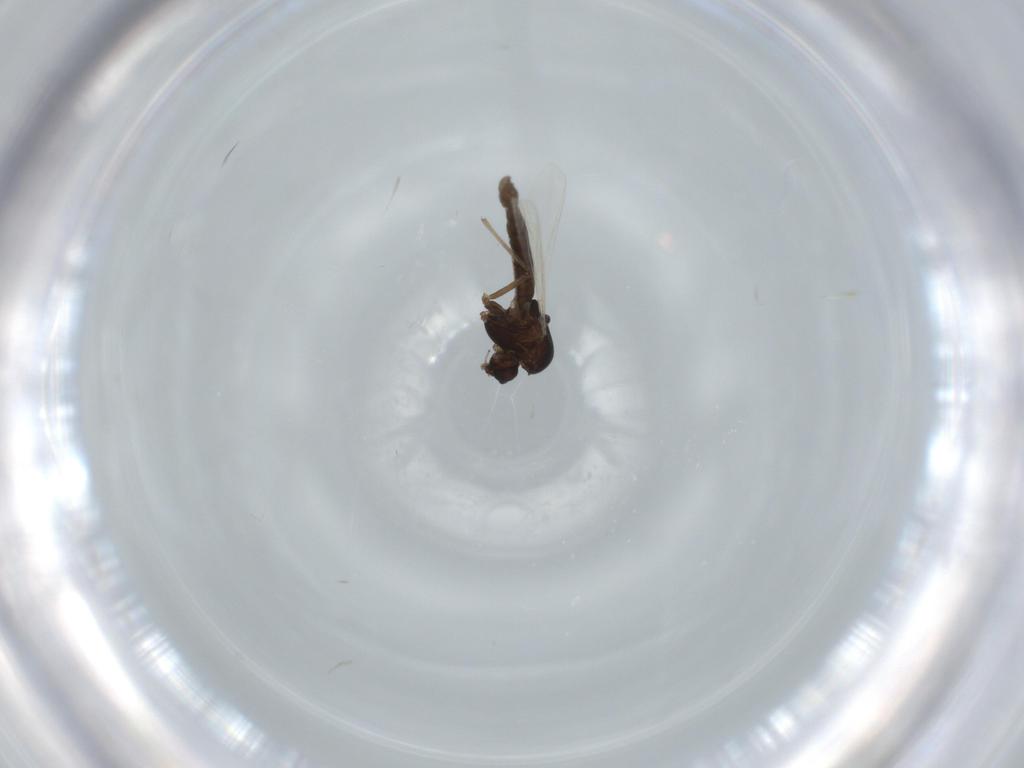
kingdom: Animalia
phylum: Arthropoda
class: Insecta
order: Diptera
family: Chironomidae
